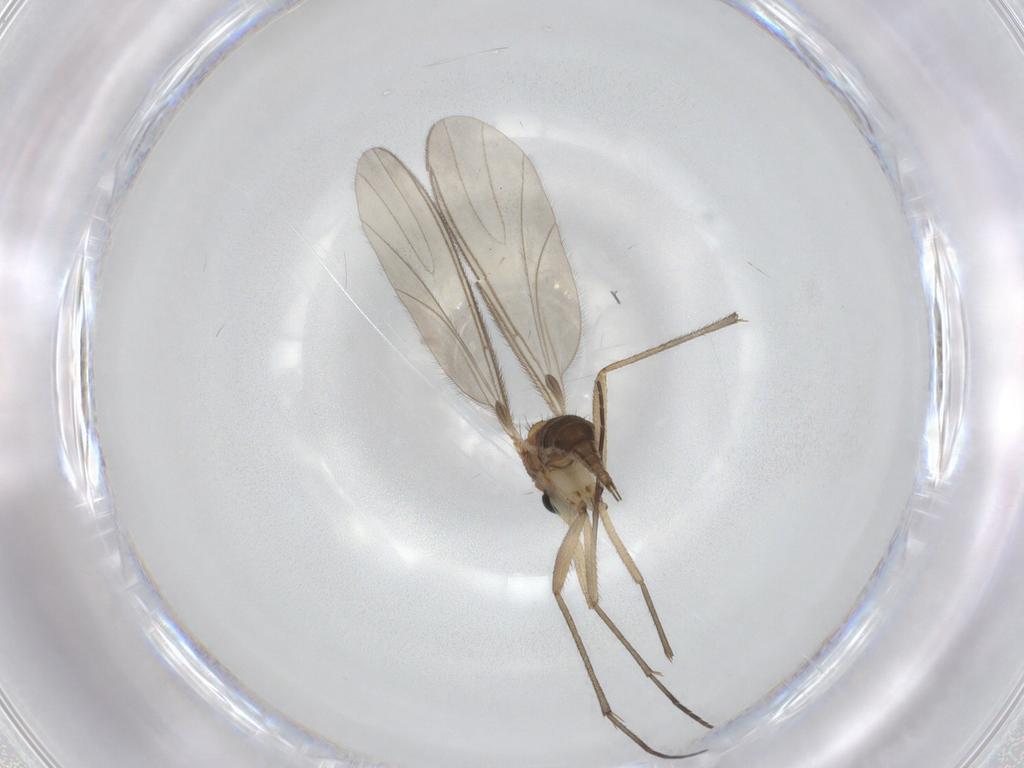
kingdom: Animalia
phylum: Arthropoda
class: Insecta
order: Diptera
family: Sciaridae
